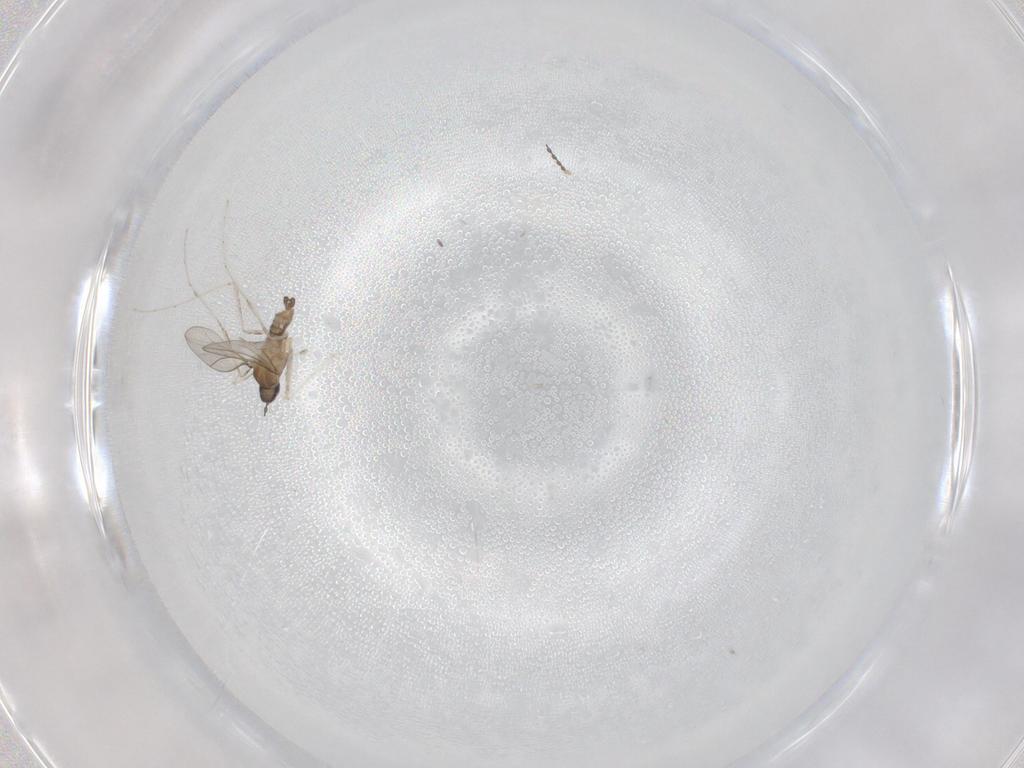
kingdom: Animalia
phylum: Arthropoda
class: Insecta
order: Diptera
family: Cecidomyiidae
